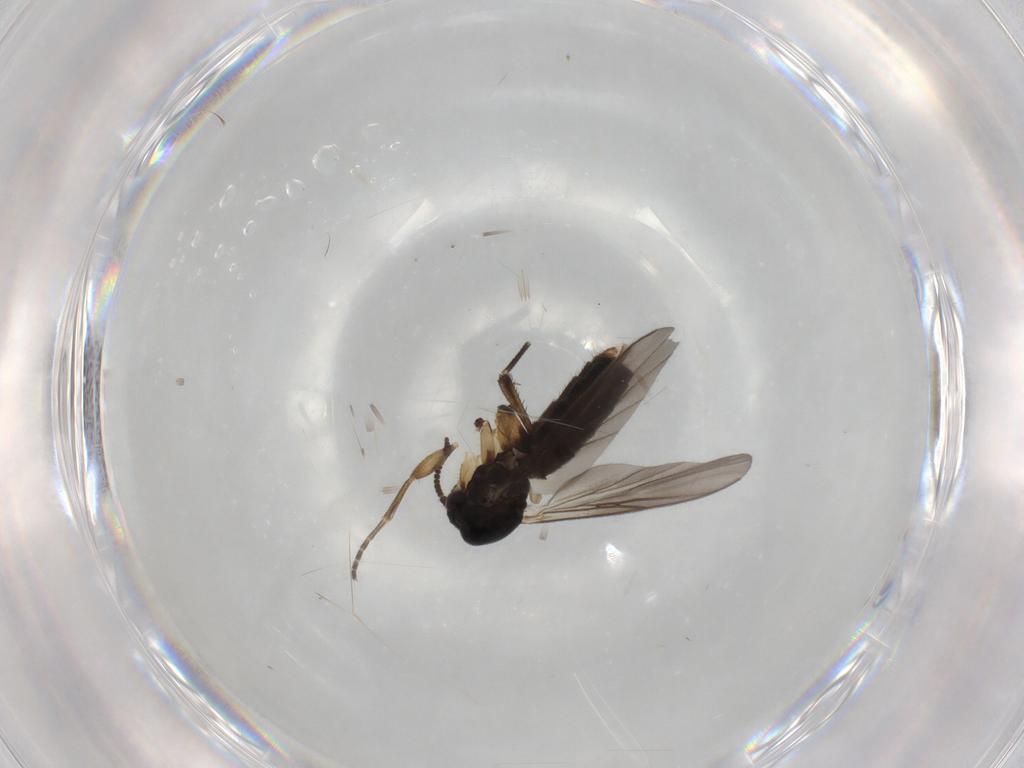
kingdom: Animalia
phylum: Arthropoda
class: Insecta
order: Diptera
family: Mycetophilidae
